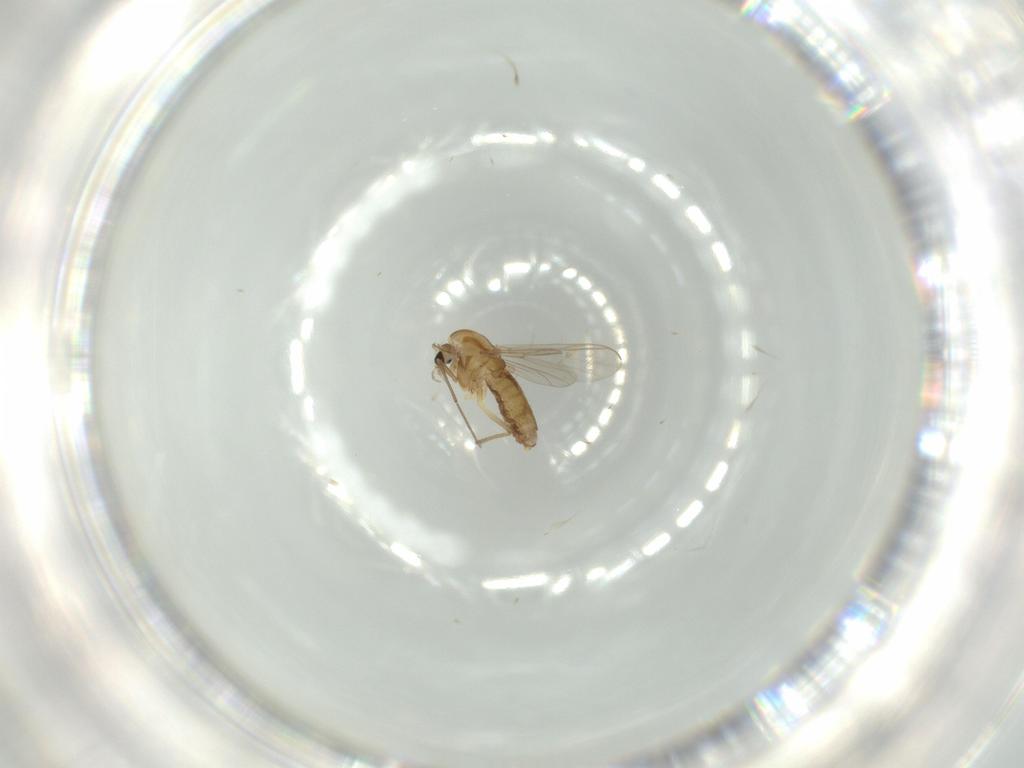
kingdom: Animalia
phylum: Arthropoda
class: Insecta
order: Diptera
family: Chironomidae
